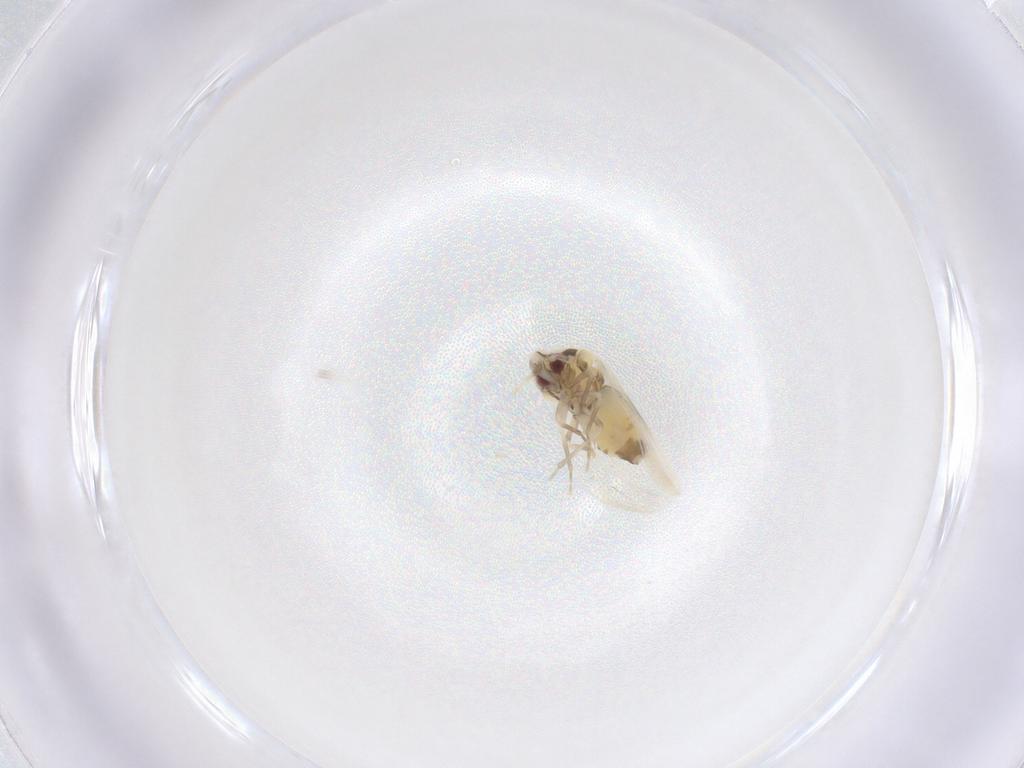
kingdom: Animalia
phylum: Arthropoda
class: Insecta
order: Hemiptera
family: Aleyrodidae
